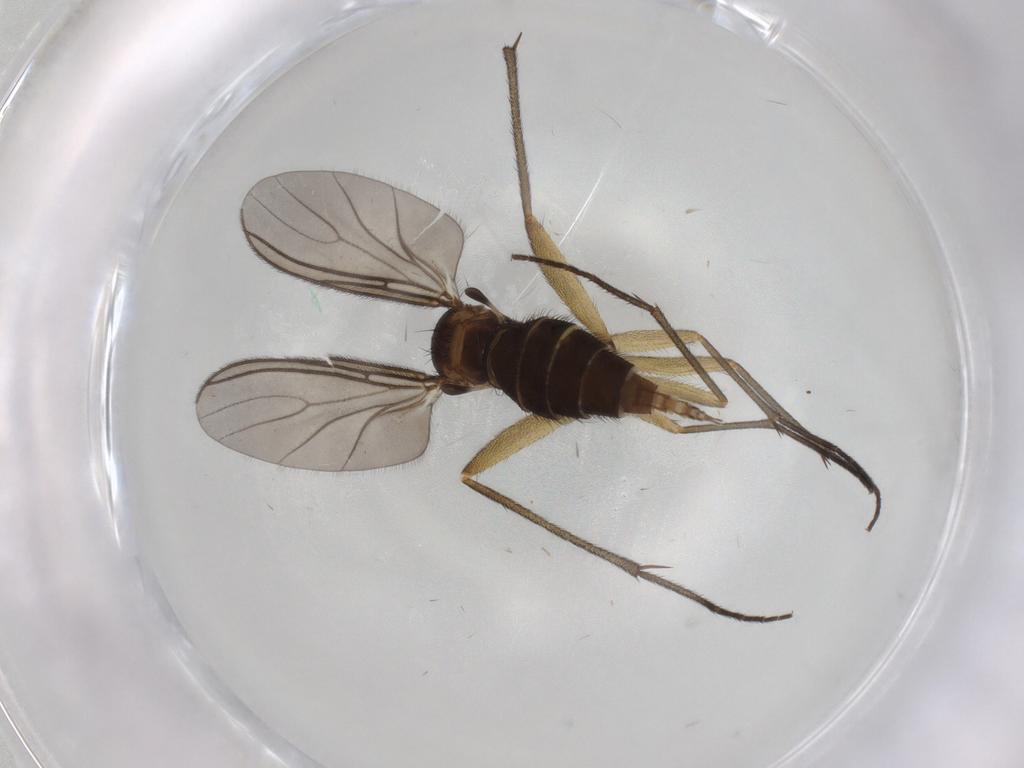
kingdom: Animalia
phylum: Arthropoda
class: Insecta
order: Diptera
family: Sciaridae
